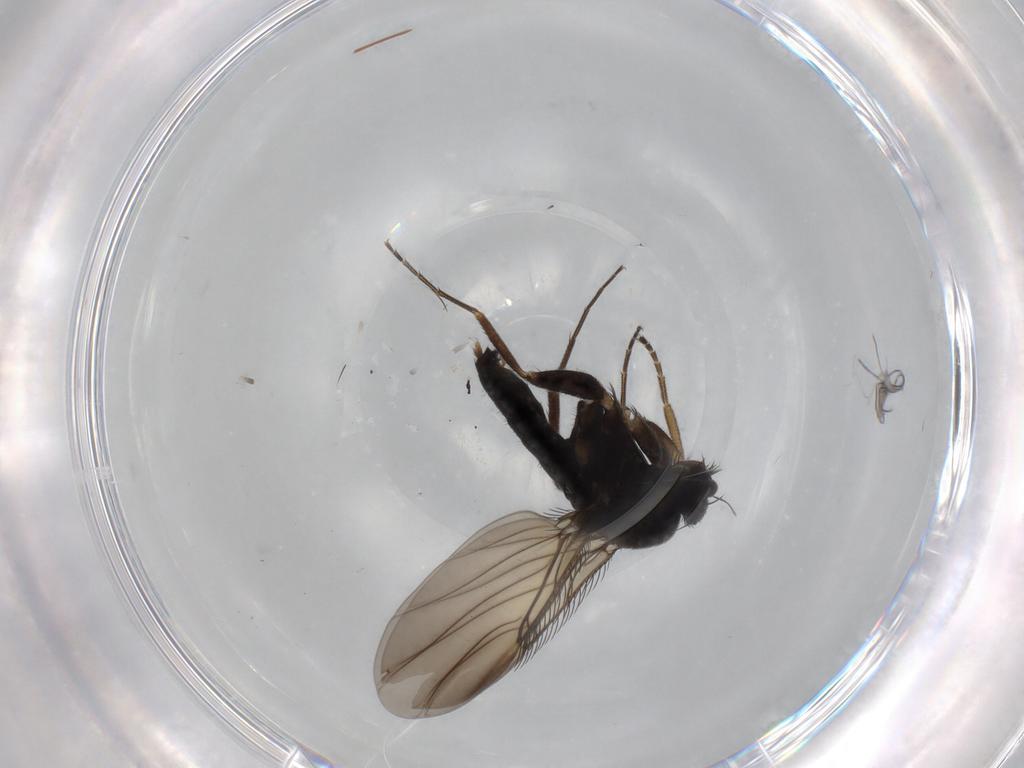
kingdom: Animalia
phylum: Arthropoda
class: Insecta
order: Diptera
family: Phoridae
